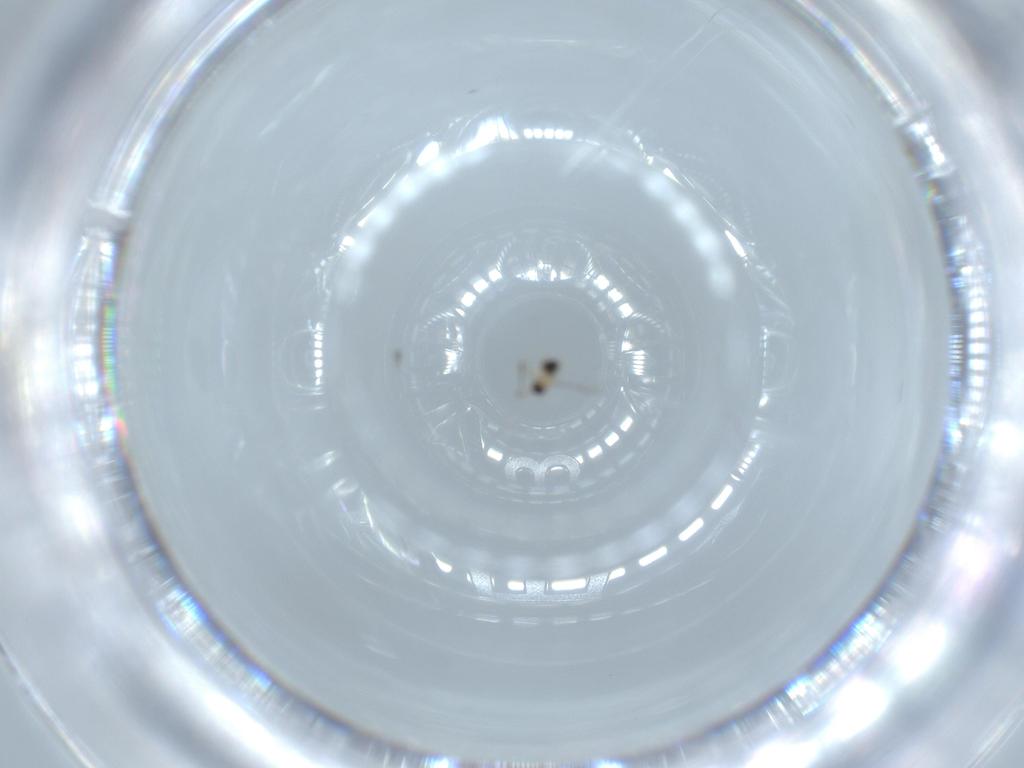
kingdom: Animalia
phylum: Arthropoda
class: Insecta
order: Hymenoptera
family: Mymaridae
